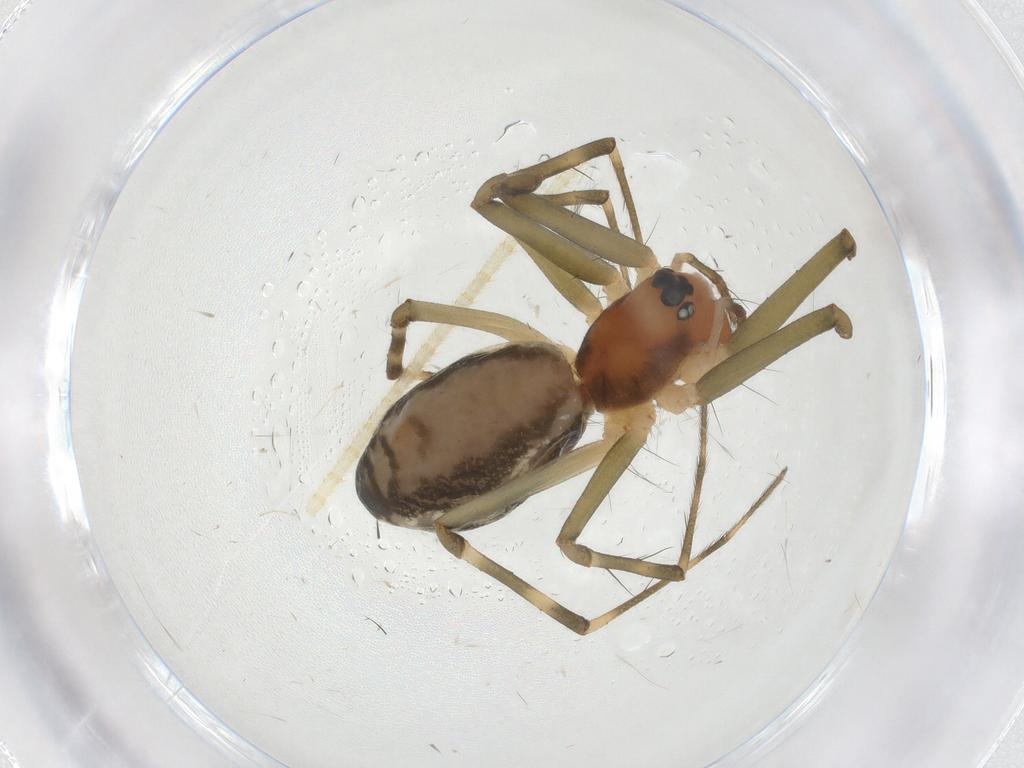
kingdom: Animalia
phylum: Arthropoda
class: Arachnida
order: Araneae
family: Linyphiidae
